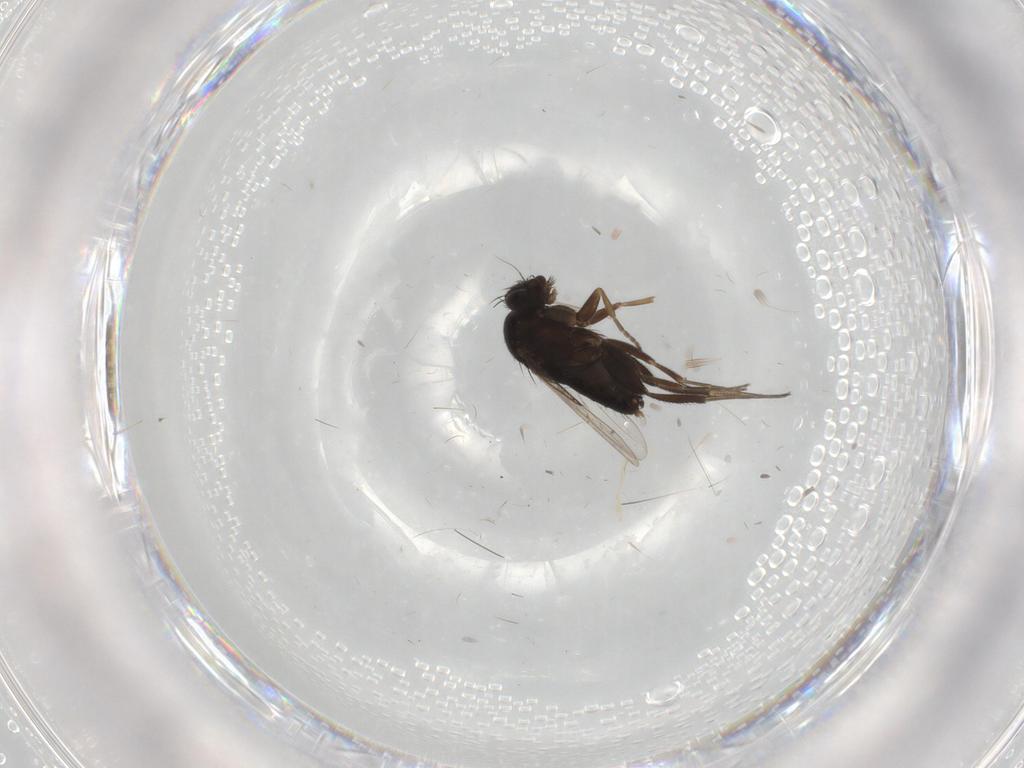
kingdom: Animalia
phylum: Arthropoda
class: Insecta
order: Diptera
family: Phoridae
